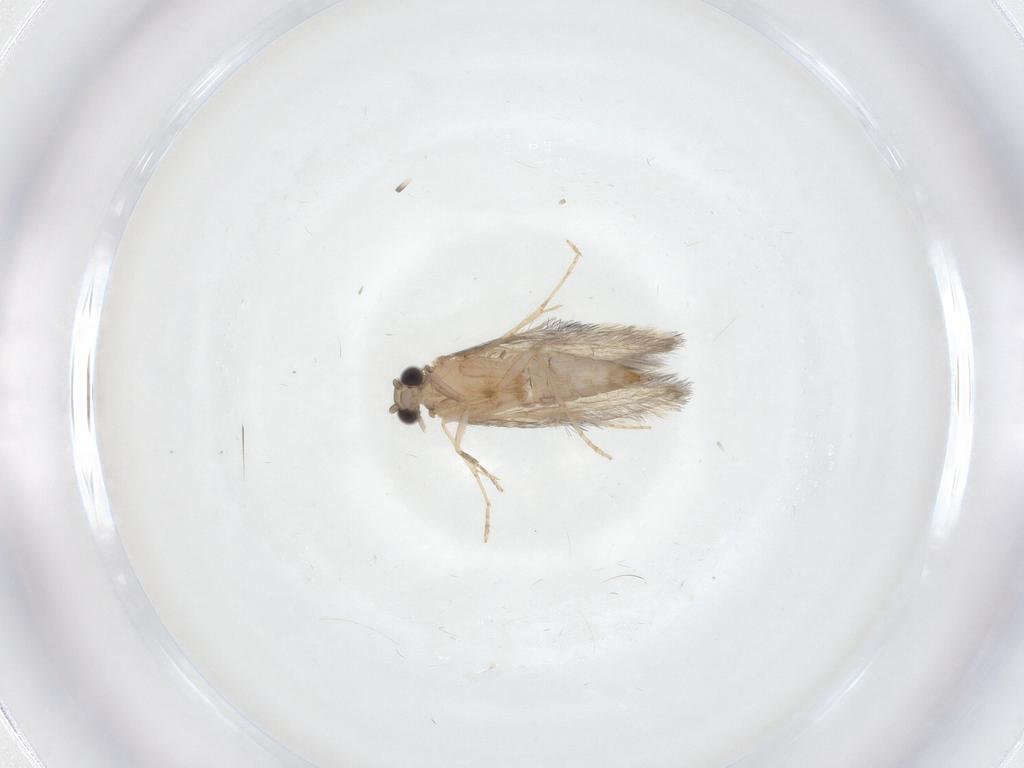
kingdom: Animalia
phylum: Arthropoda
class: Insecta
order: Trichoptera
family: Hydroptilidae
